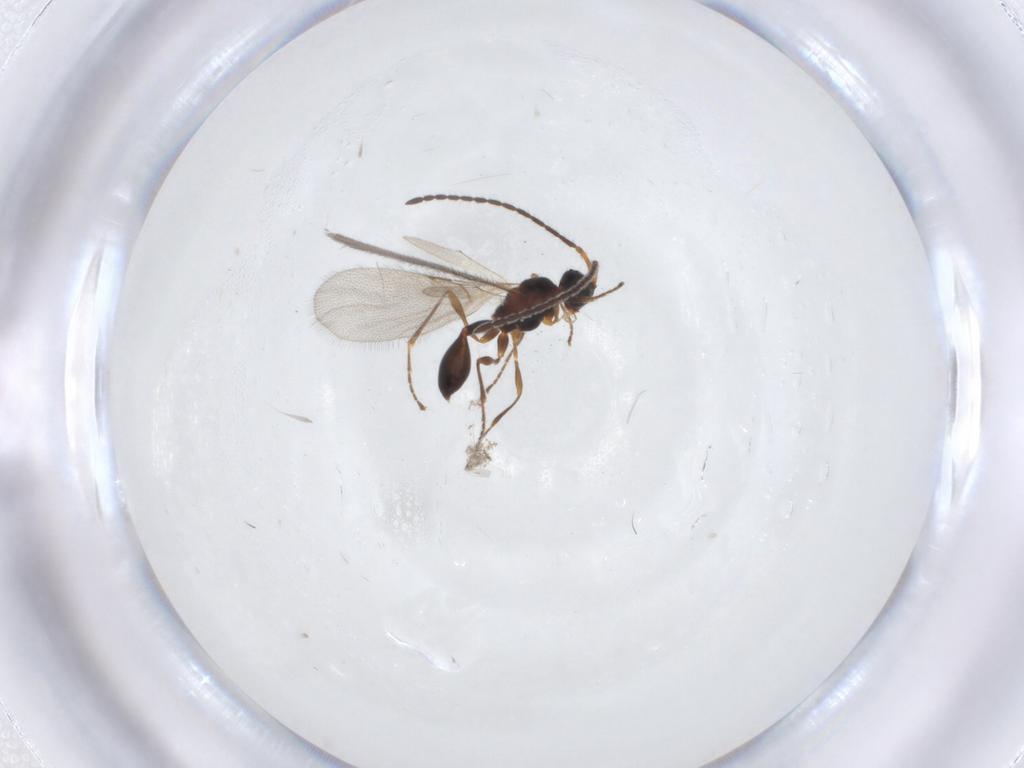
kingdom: Animalia
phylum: Arthropoda
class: Insecta
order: Hymenoptera
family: Diapriidae
